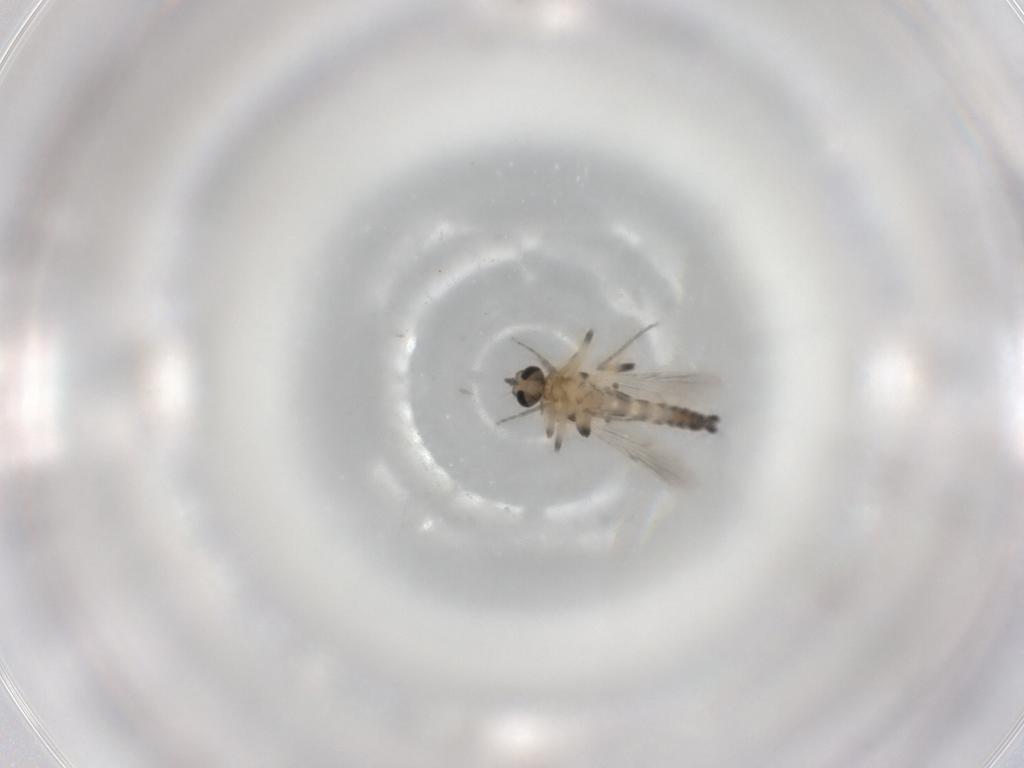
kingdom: Animalia
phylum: Arthropoda
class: Insecta
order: Diptera
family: Ceratopogonidae
